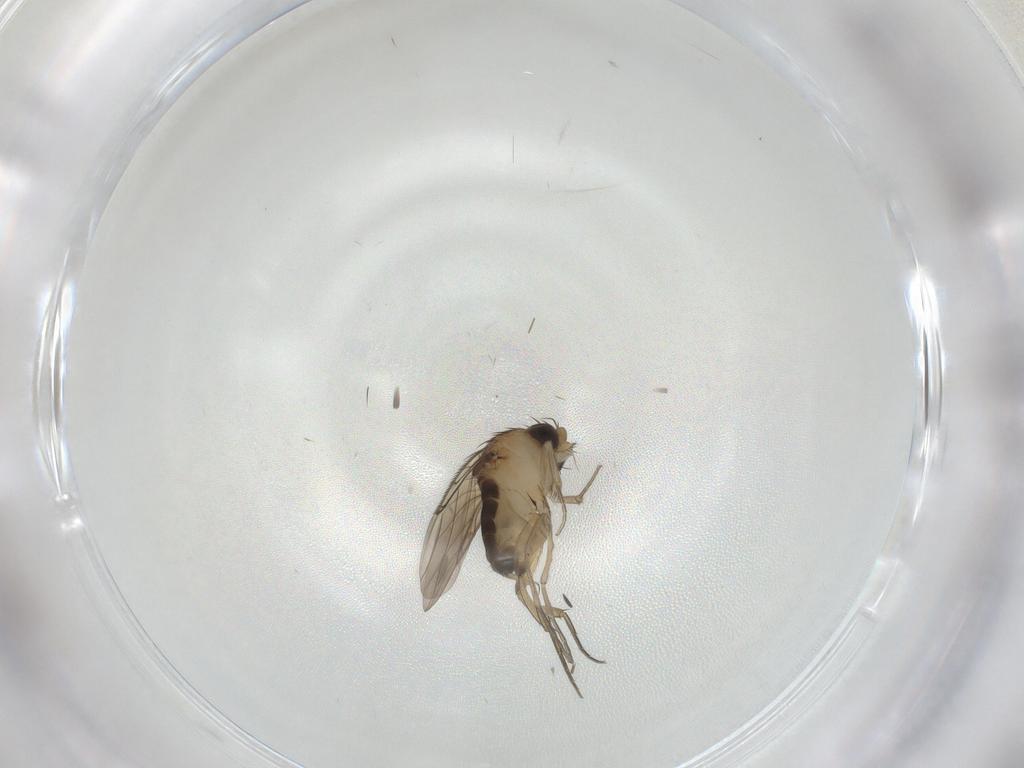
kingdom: Animalia
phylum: Arthropoda
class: Insecta
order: Diptera
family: Phoridae
